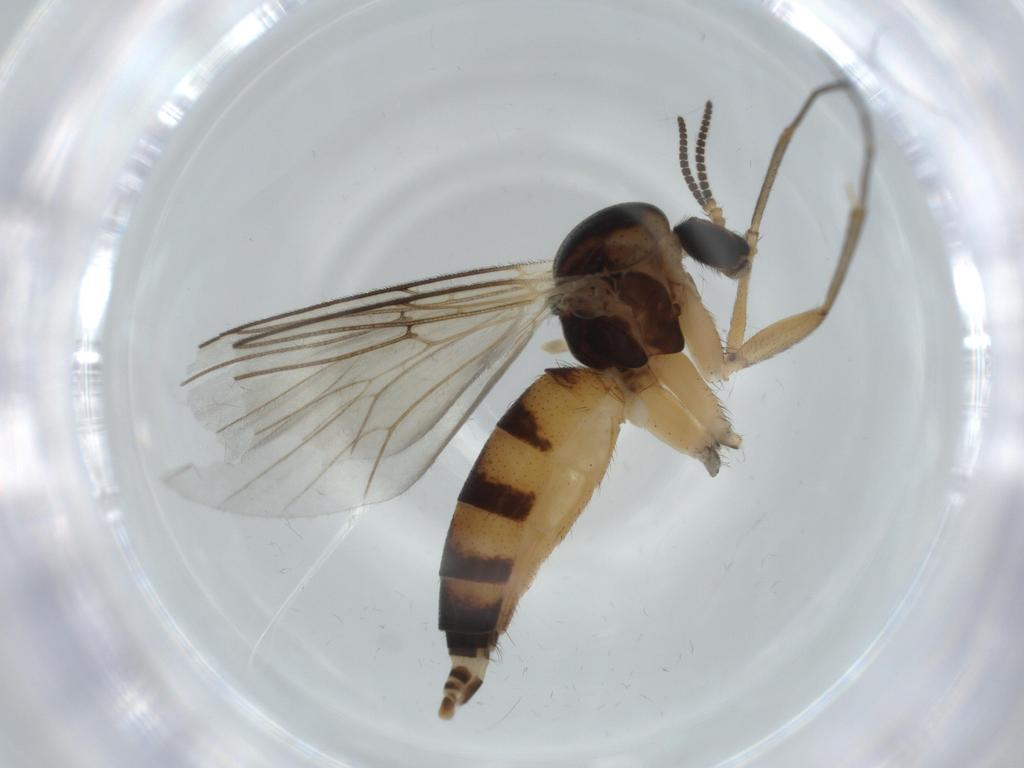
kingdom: Animalia
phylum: Arthropoda
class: Insecta
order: Diptera
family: Mycetophilidae
